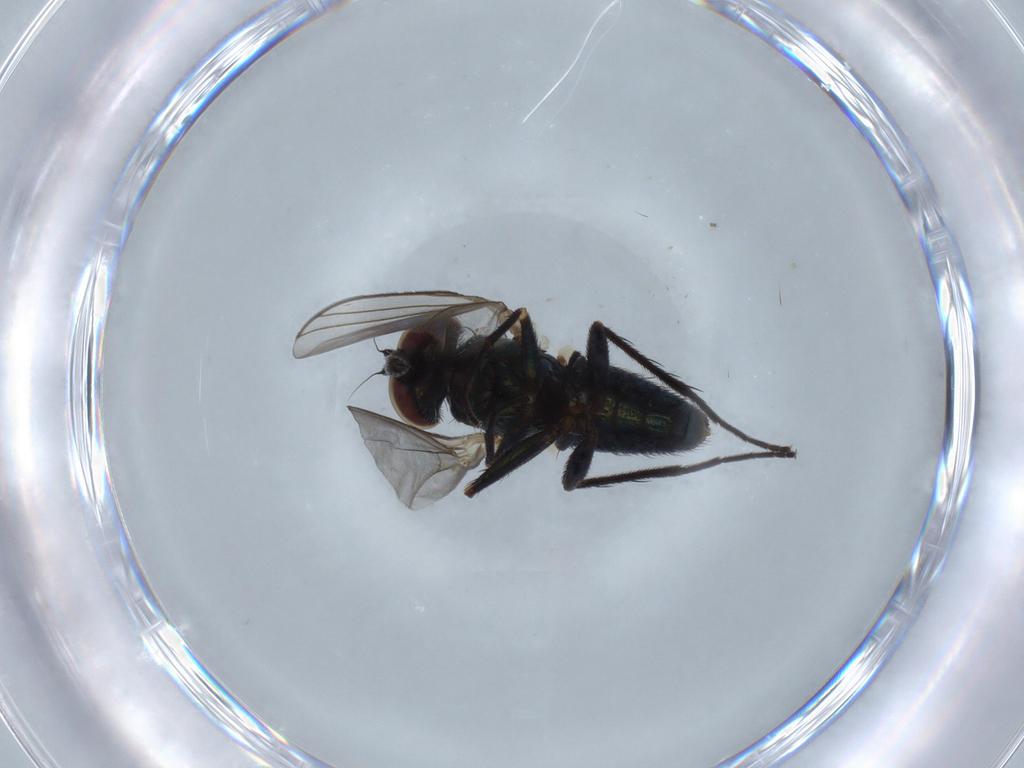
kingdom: Animalia
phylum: Arthropoda
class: Insecta
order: Diptera
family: Dolichopodidae
